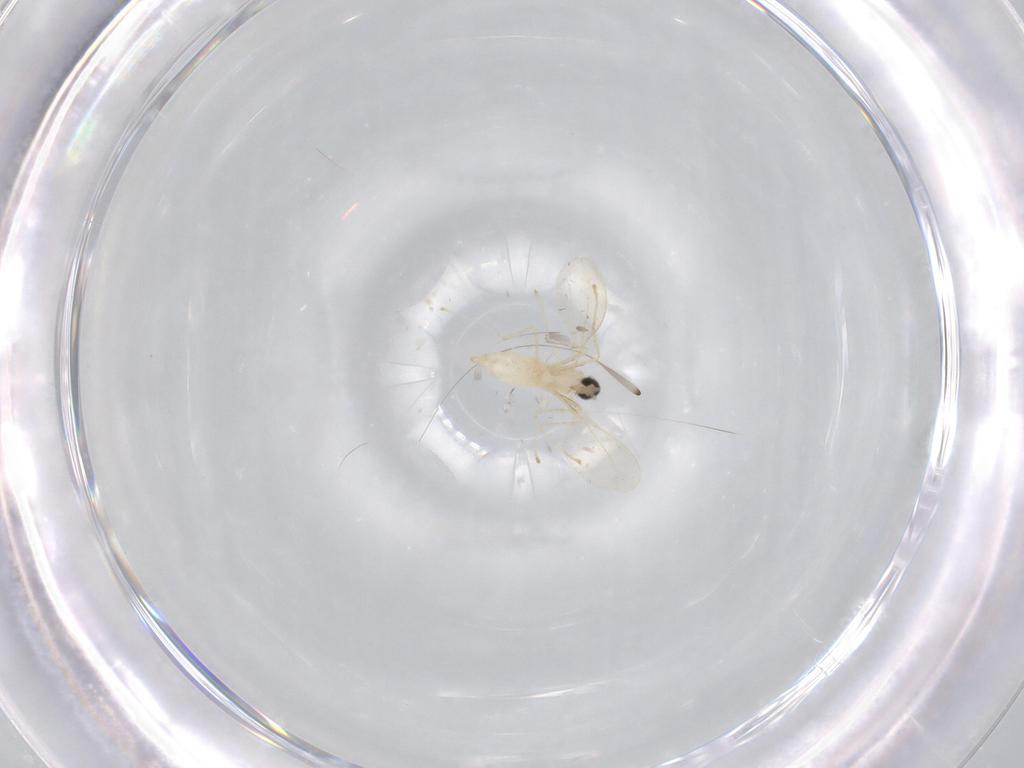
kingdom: Animalia
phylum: Arthropoda
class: Insecta
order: Diptera
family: Cecidomyiidae
